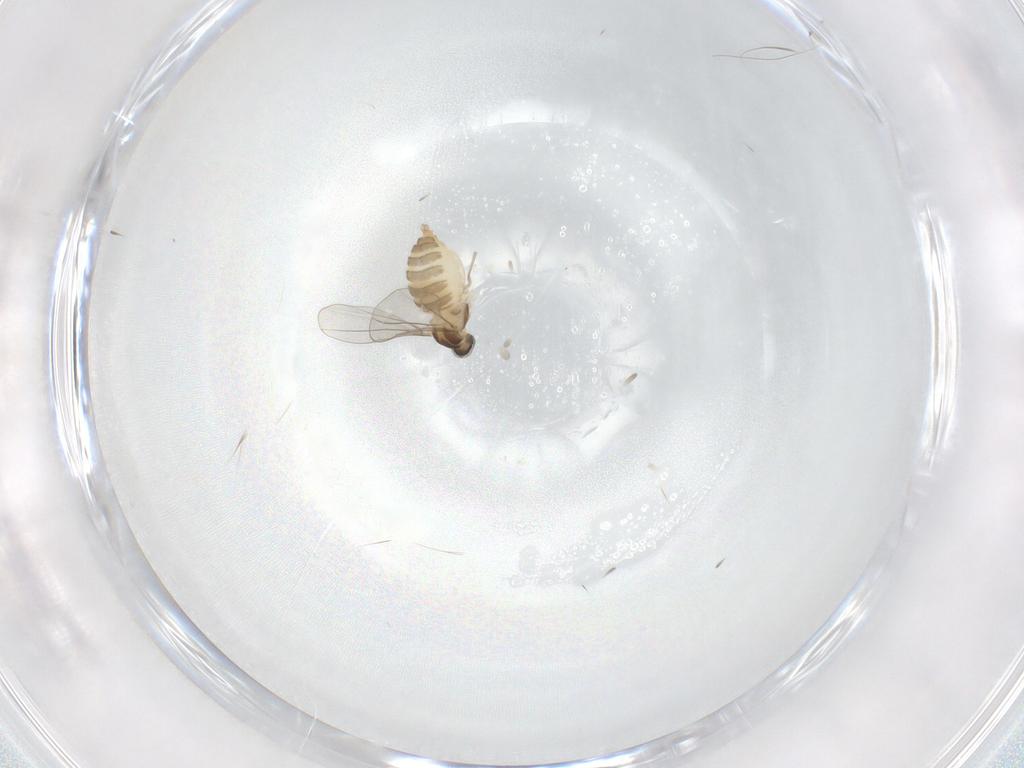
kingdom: Animalia
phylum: Arthropoda
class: Insecta
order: Diptera
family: Cecidomyiidae
